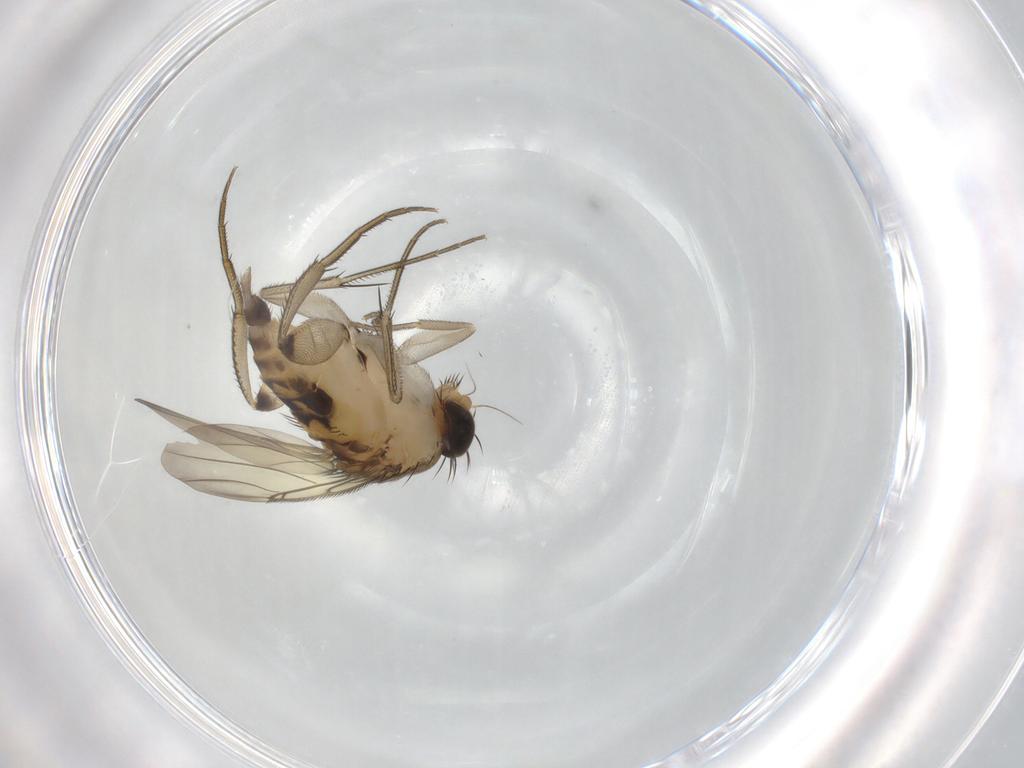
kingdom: Animalia
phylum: Arthropoda
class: Insecta
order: Diptera
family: Phoridae
